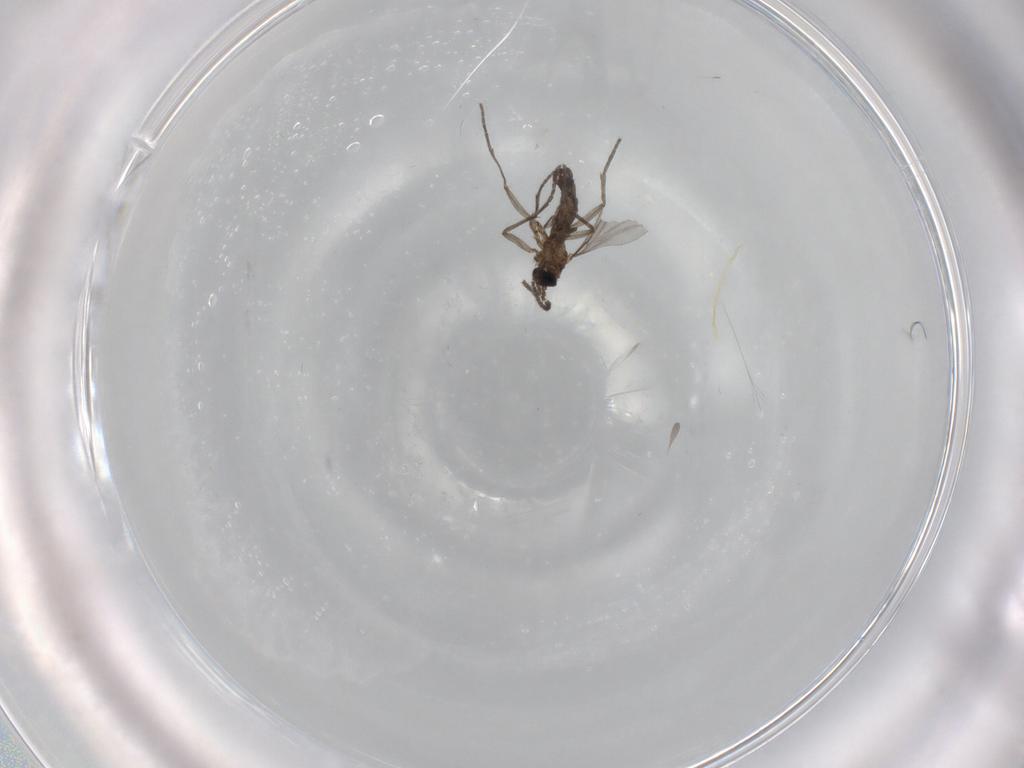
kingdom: Animalia
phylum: Arthropoda
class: Insecta
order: Diptera
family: Sciaridae
